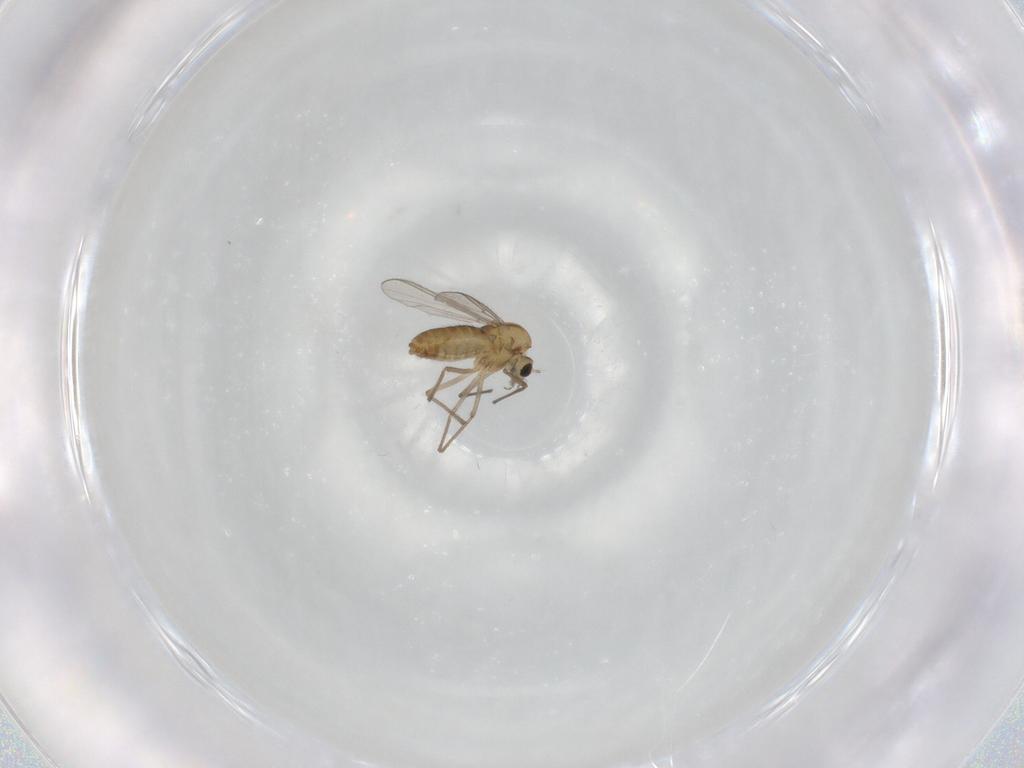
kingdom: Animalia
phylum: Arthropoda
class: Insecta
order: Diptera
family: Chironomidae
